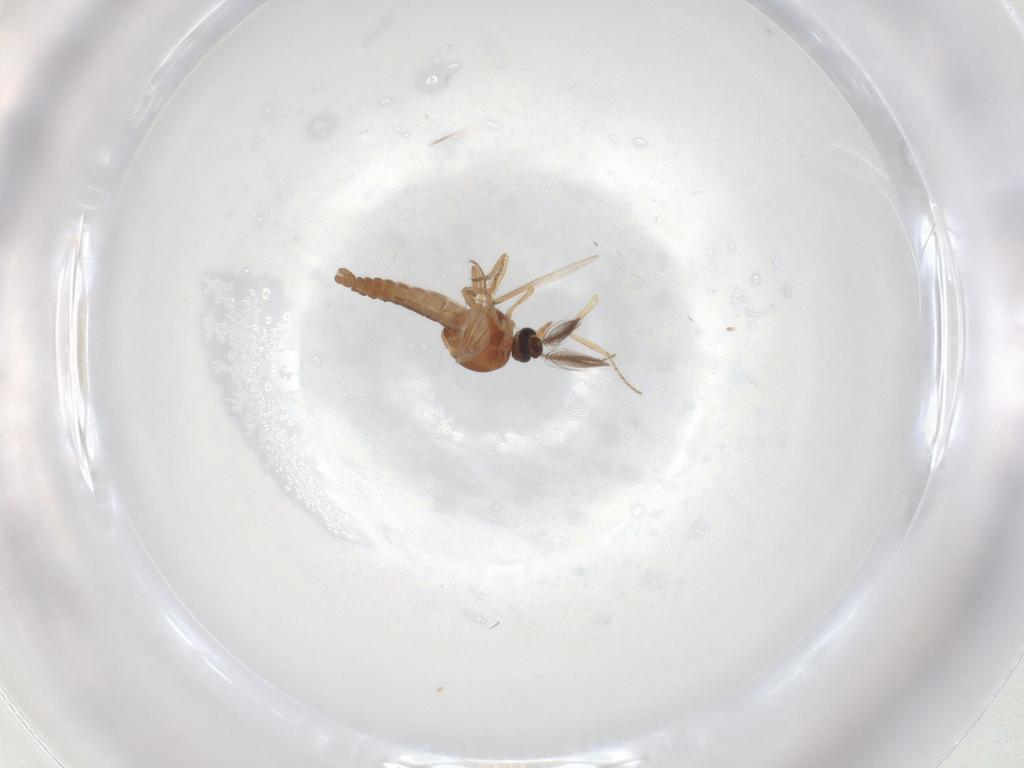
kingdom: Animalia
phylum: Arthropoda
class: Insecta
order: Diptera
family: Ceratopogonidae
